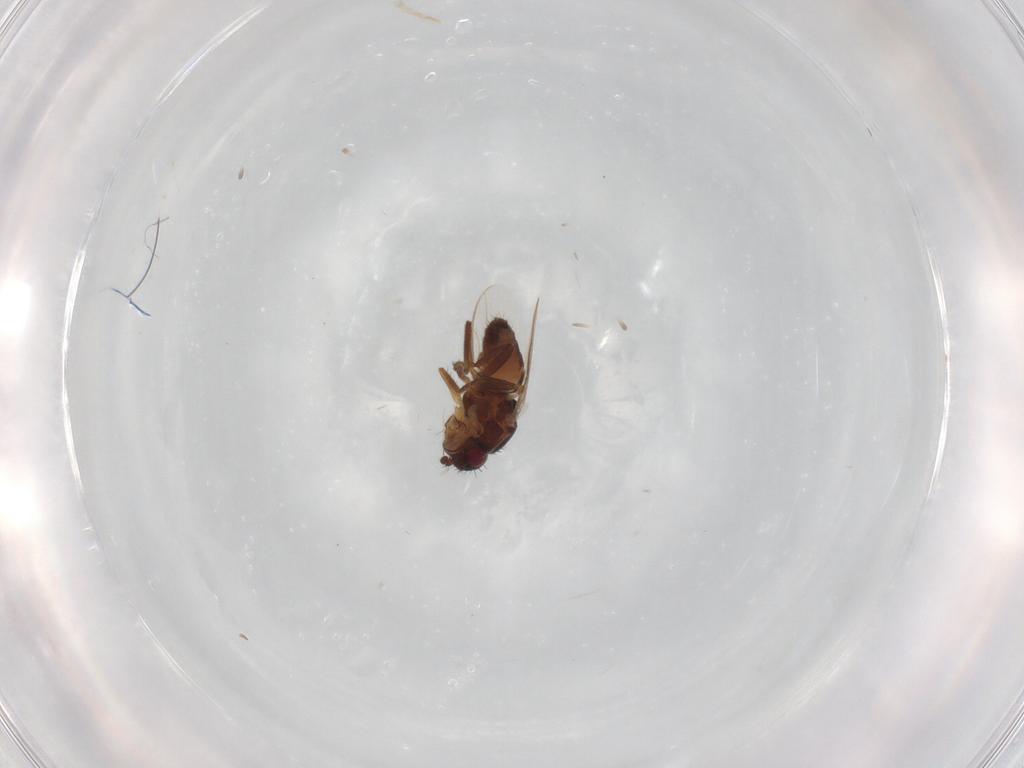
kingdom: Animalia
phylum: Arthropoda
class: Insecta
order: Diptera
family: Sphaeroceridae
